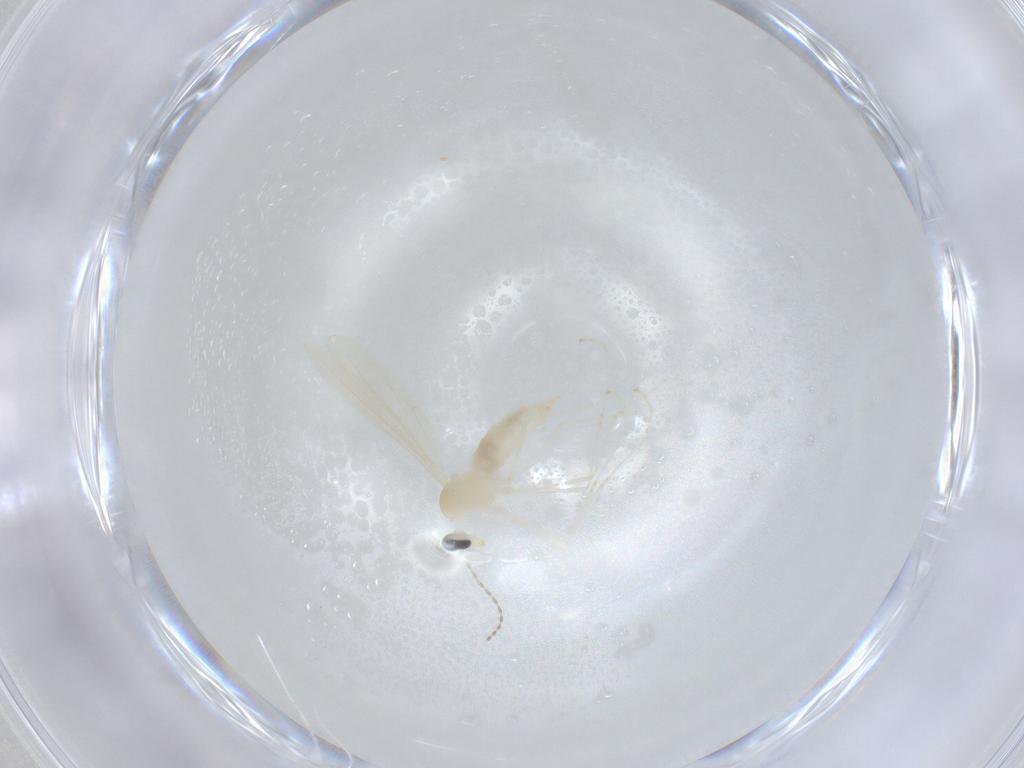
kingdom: Animalia
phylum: Arthropoda
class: Insecta
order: Diptera
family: Cecidomyiidae
